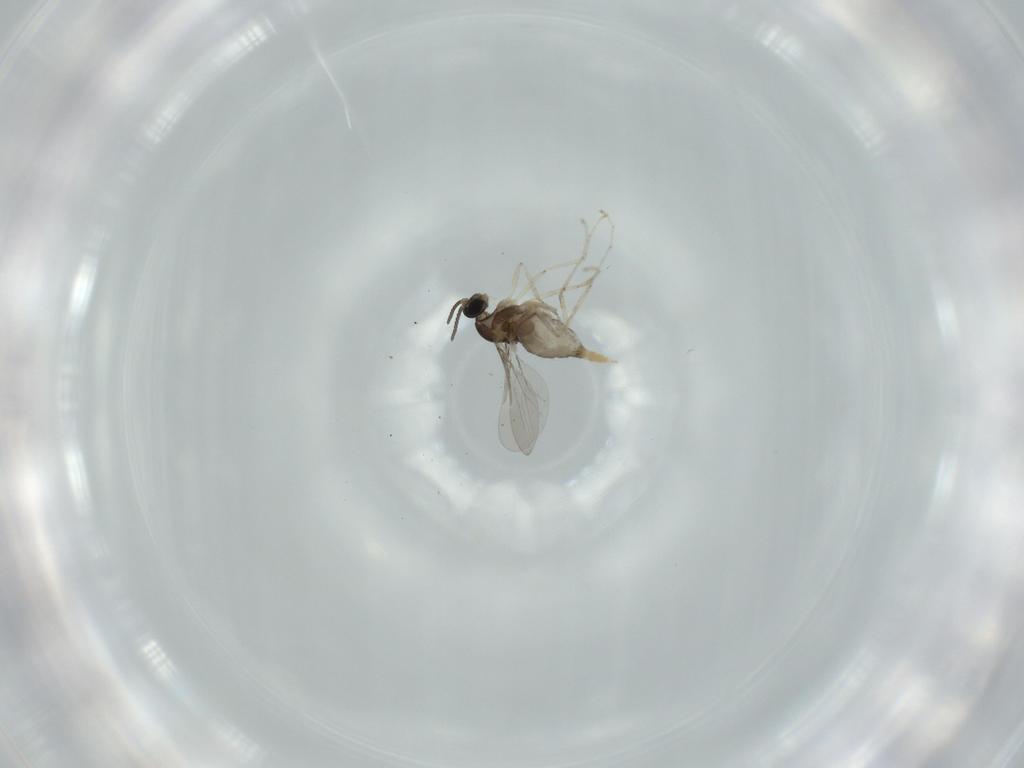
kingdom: Animalia
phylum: Arthropoda
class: Insecta
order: Diptera
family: Cecidomyiidae
